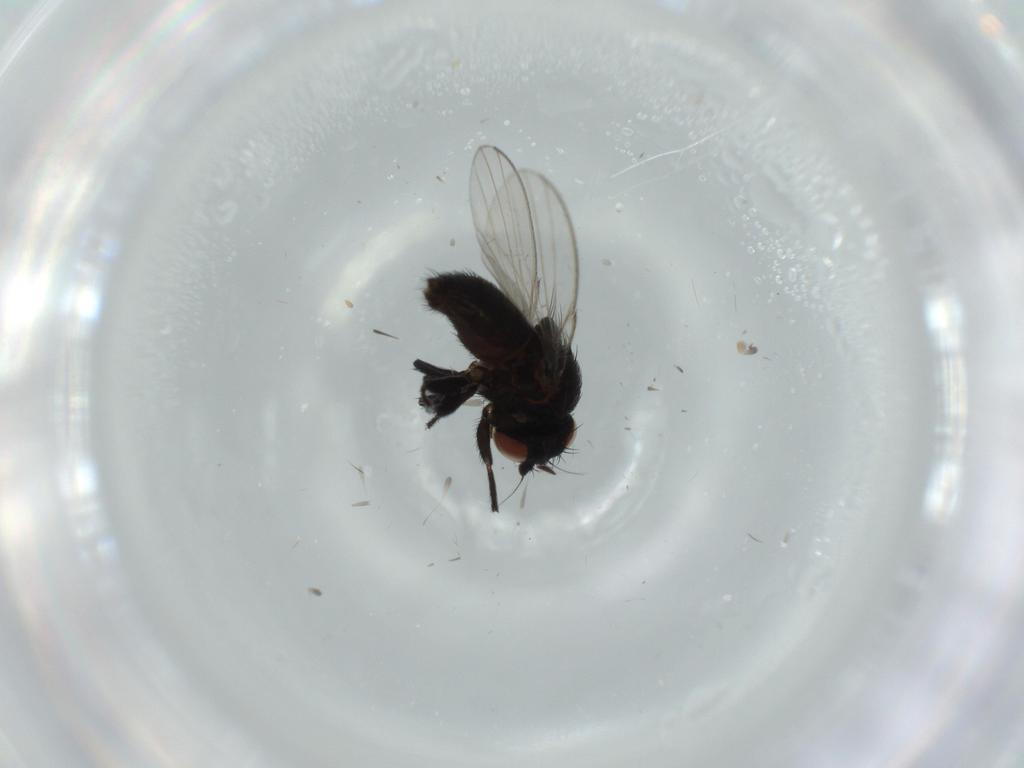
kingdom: Animalia
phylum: Arthropoda
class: Insecta
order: Diptera
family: Milichiidae
